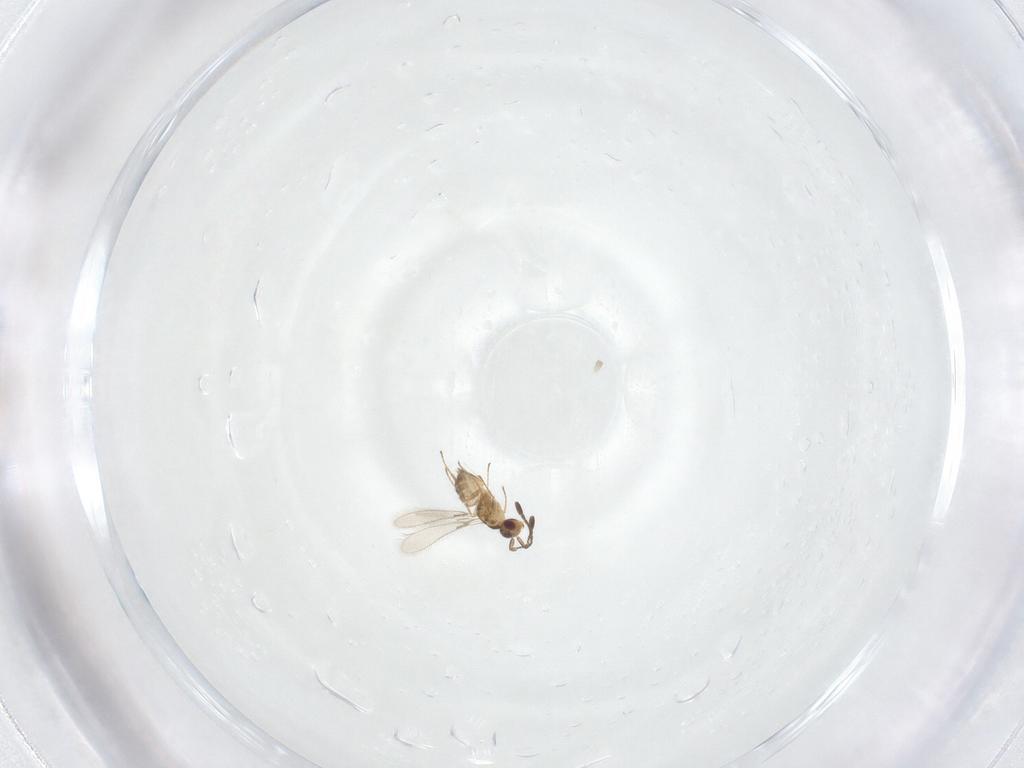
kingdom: Animalia
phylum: Arthropoda
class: Insecta
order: Hymenoptera
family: Mymaridae
